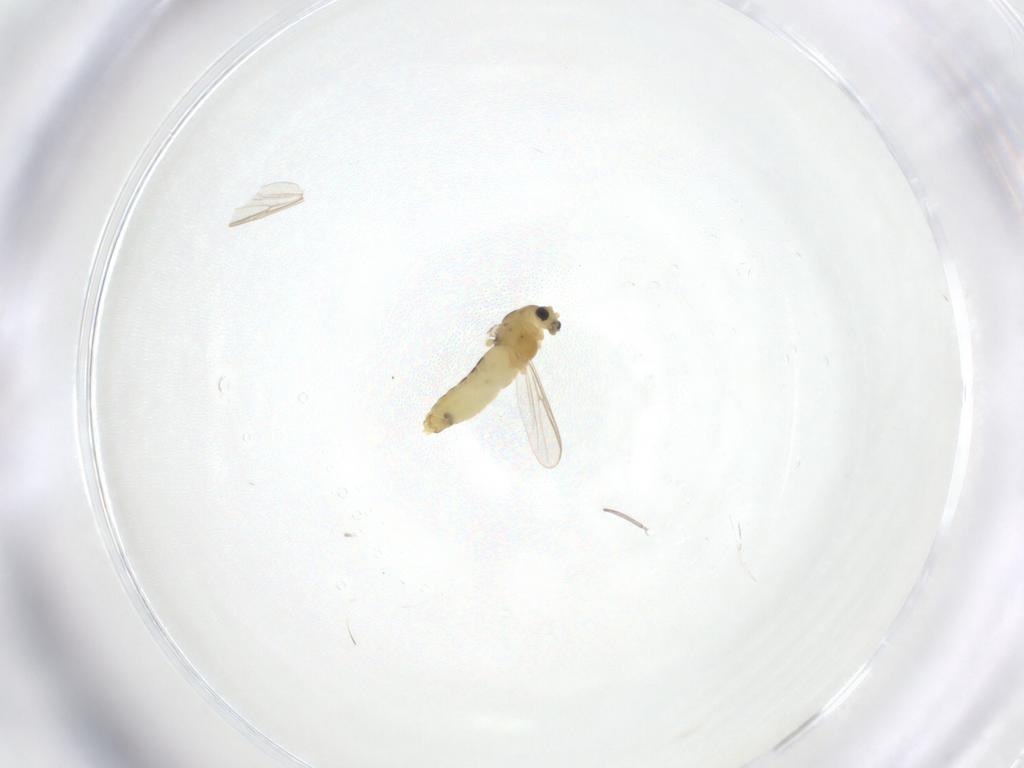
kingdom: Animalia
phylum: Arthropoda
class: Insecta
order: Diptera
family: Chironomidae
